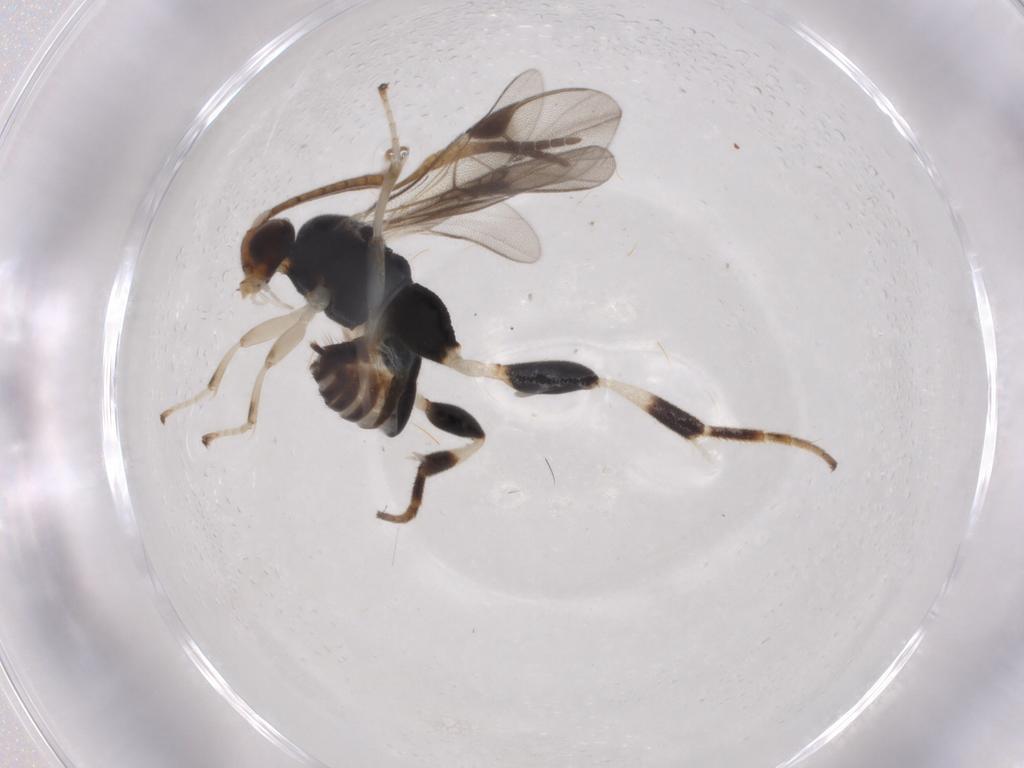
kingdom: Animalia
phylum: Arthropoda
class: Insecta
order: Hymenoptera
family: Braconidae
